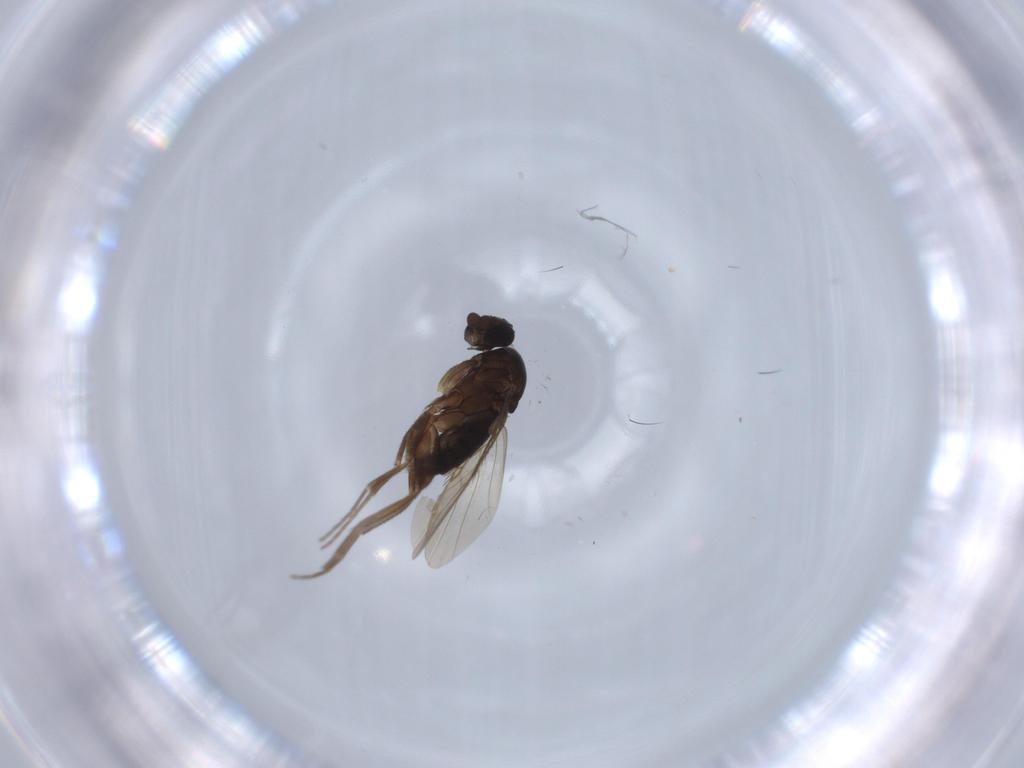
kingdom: Animalia
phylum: Arthropoda
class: Insecta
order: Diptera
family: Phoridae
